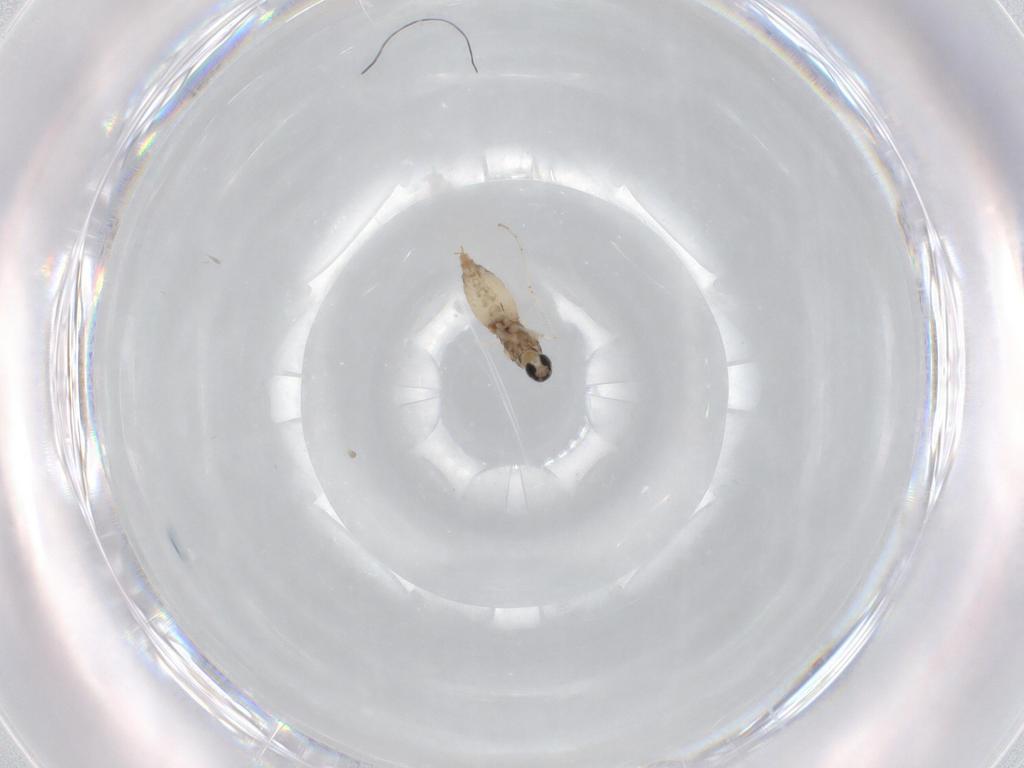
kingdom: Animalia
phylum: Arthropoda
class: Insecta
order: Diptera
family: Cecidomyiidae
